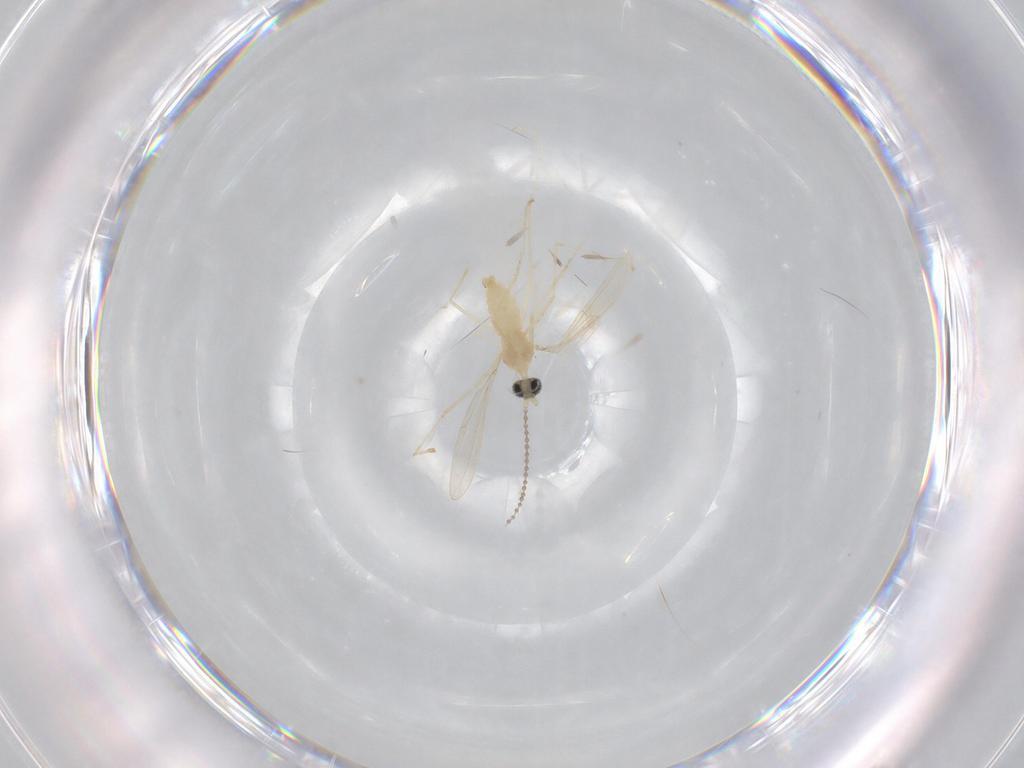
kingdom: Animalia
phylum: Arthropoda
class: Insecta
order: Diptera
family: Cecidomyiidae
